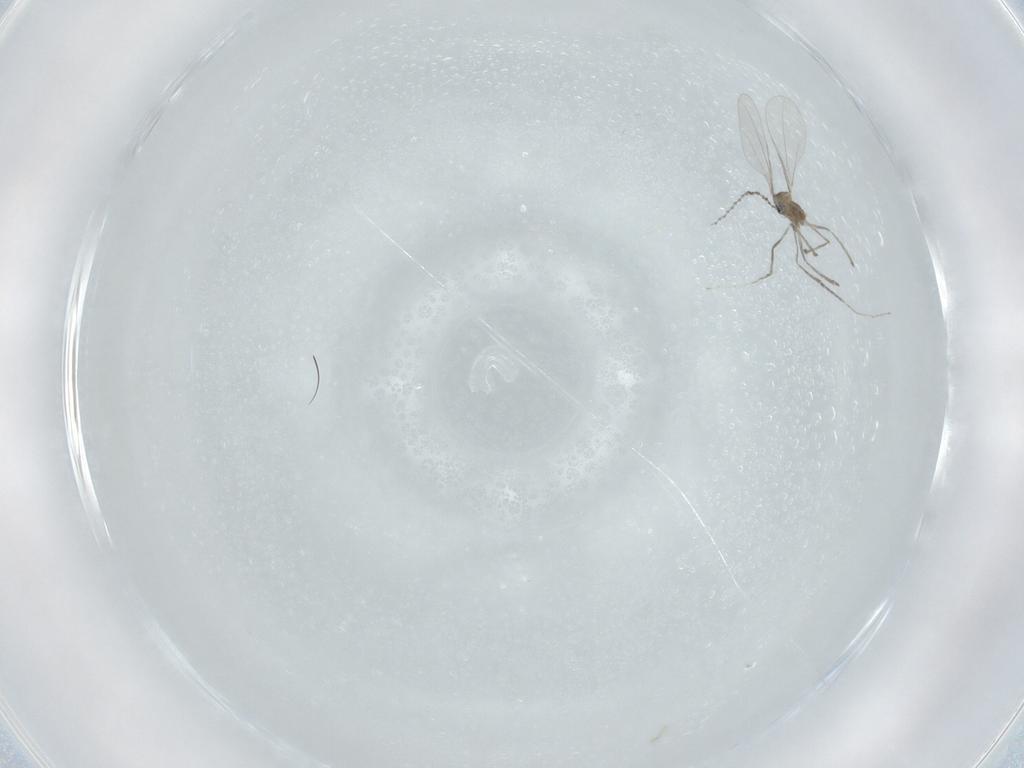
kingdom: Animalia
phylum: Arthropoda
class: Insecta
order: Diptera
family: Cecidomyiidae
